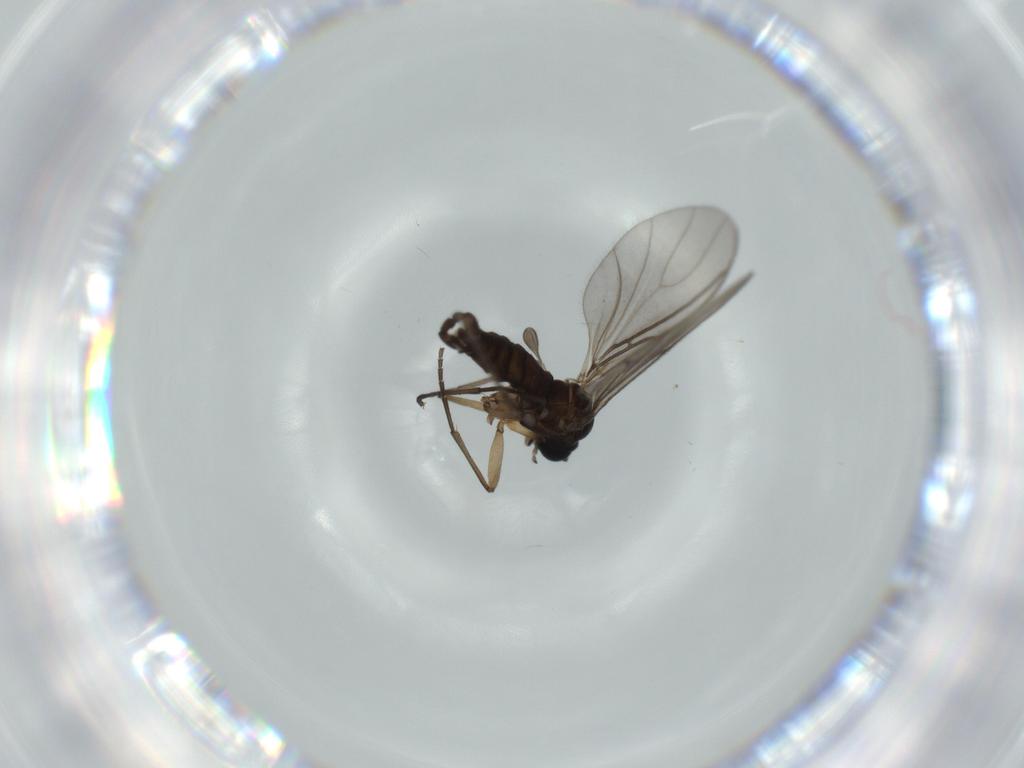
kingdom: Animalia
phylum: Arthropoda
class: Insecta
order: Diptera
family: Sciaridae
